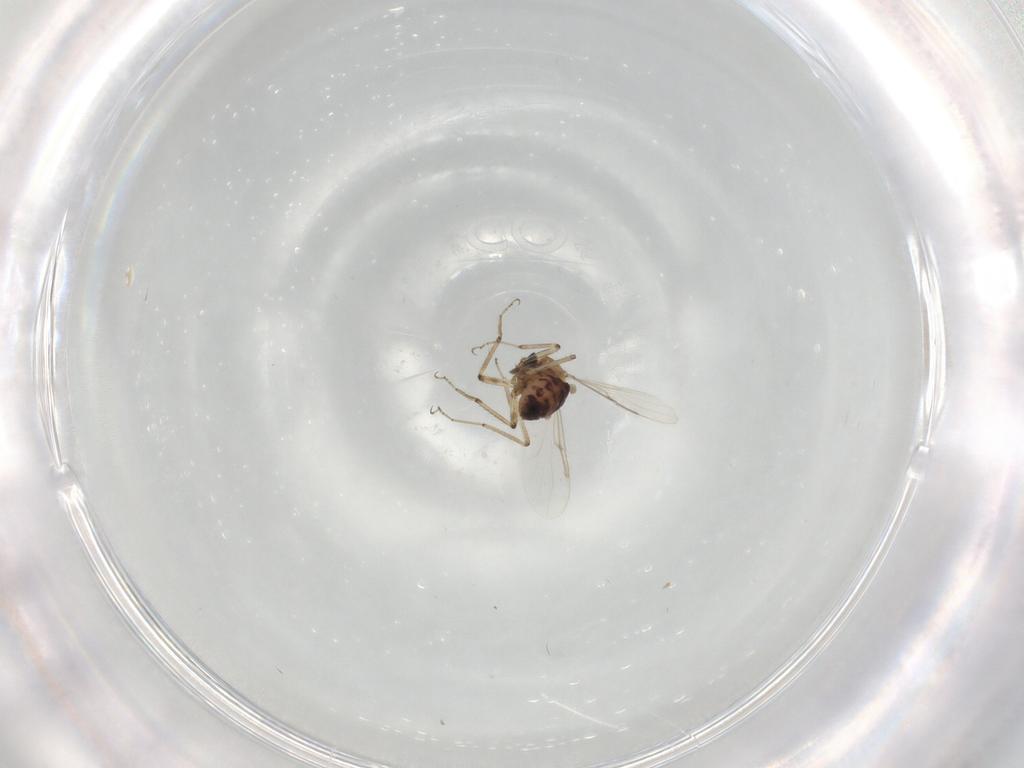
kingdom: Animalia
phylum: Arthropoda
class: Insecta
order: Diptera
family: Ceratopogonidae
